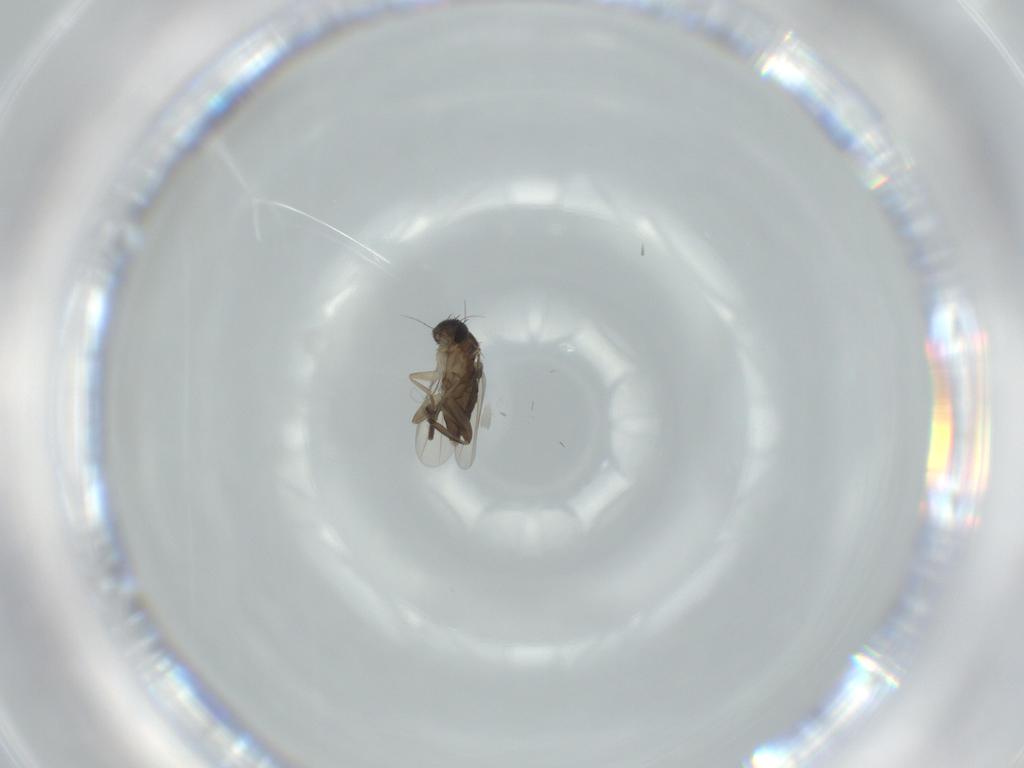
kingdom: Animalia
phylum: Arthropoda
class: Insecta
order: Diptera
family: Phoridae
